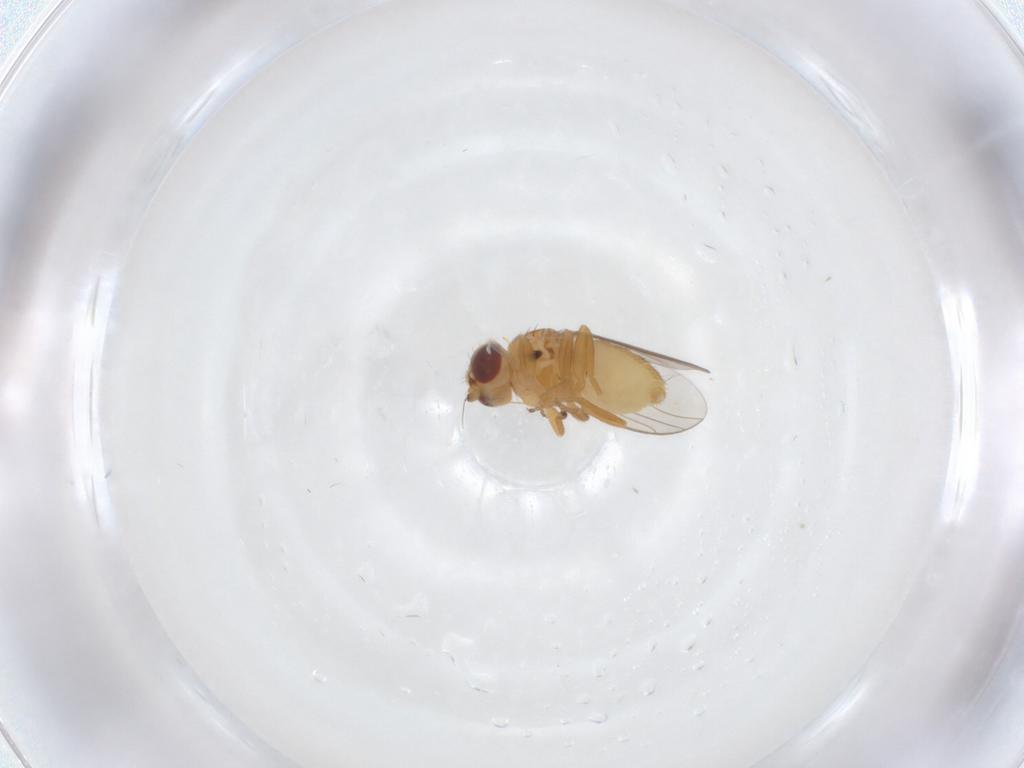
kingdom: Animalia
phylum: Arthropoda
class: Insecta
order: Diptera
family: Chloropidae
